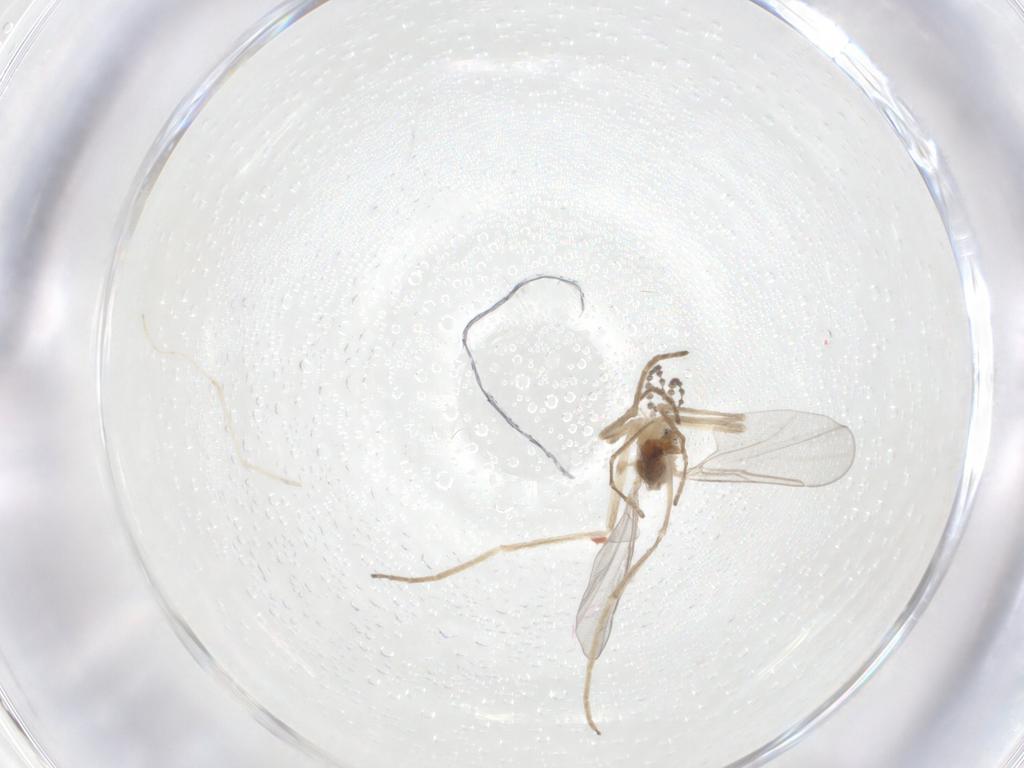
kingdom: Animalia
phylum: Arthropoda
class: Insecta
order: Diptera
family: Cecidomyiidae
